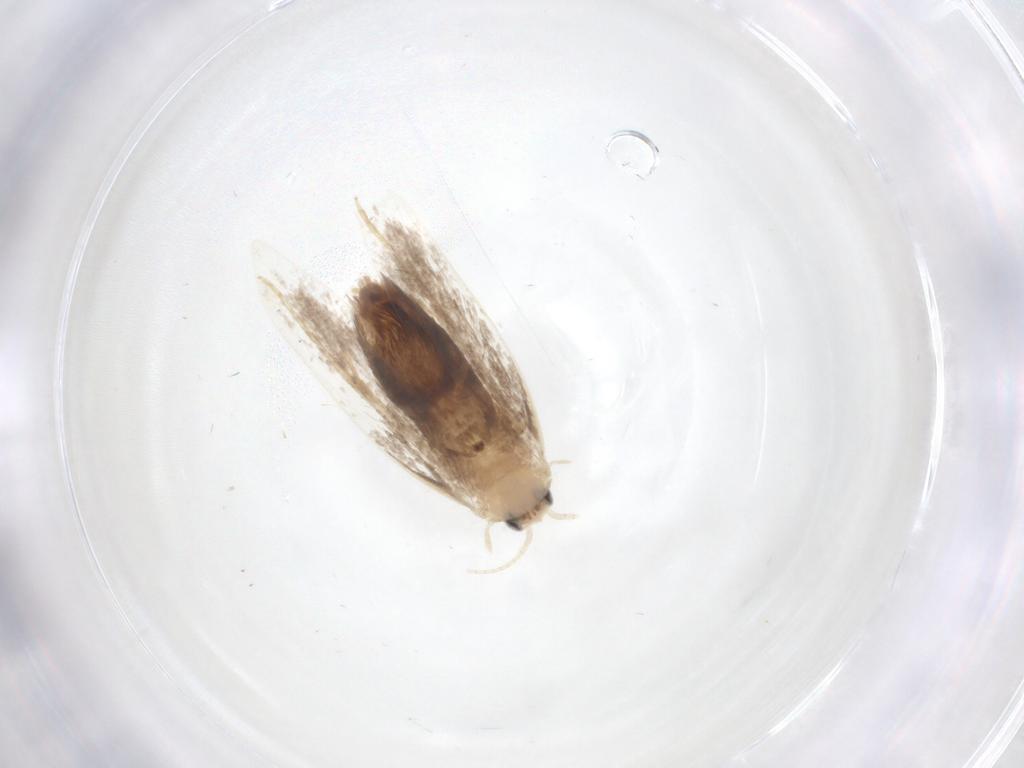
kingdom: Animalia
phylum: Arthropoda
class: Insecta
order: Lepidoptera
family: Dryadaulidae
